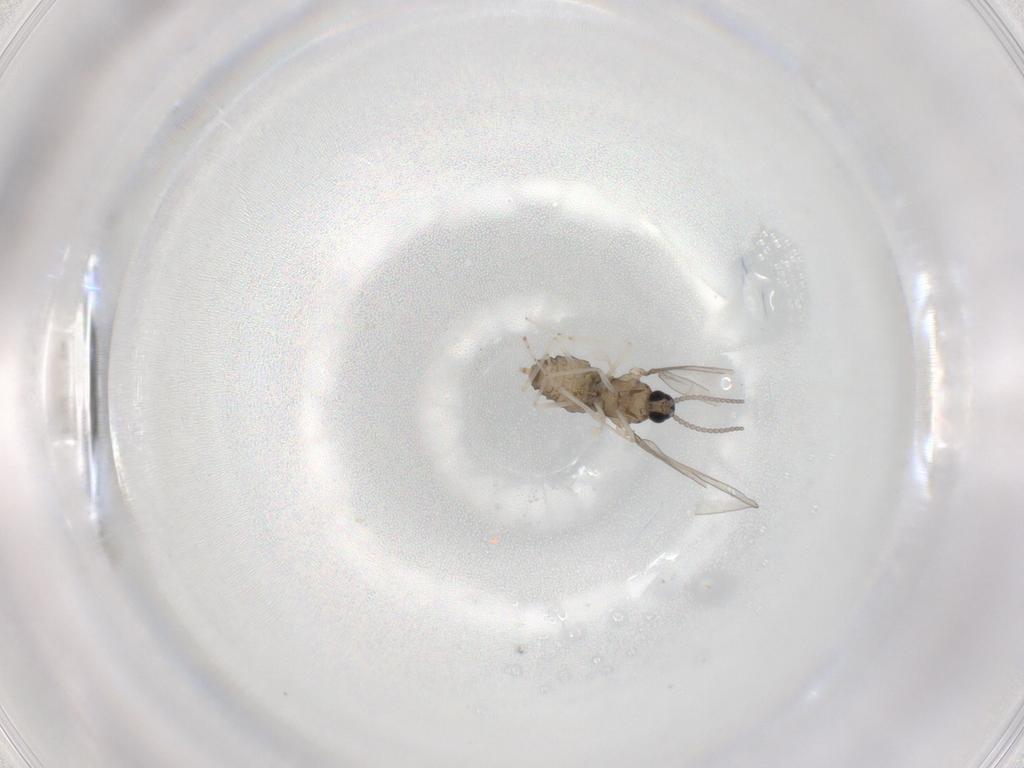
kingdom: Animalia
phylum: Arthropoda
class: Insecta
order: Diptera
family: Cecidomyiidae
